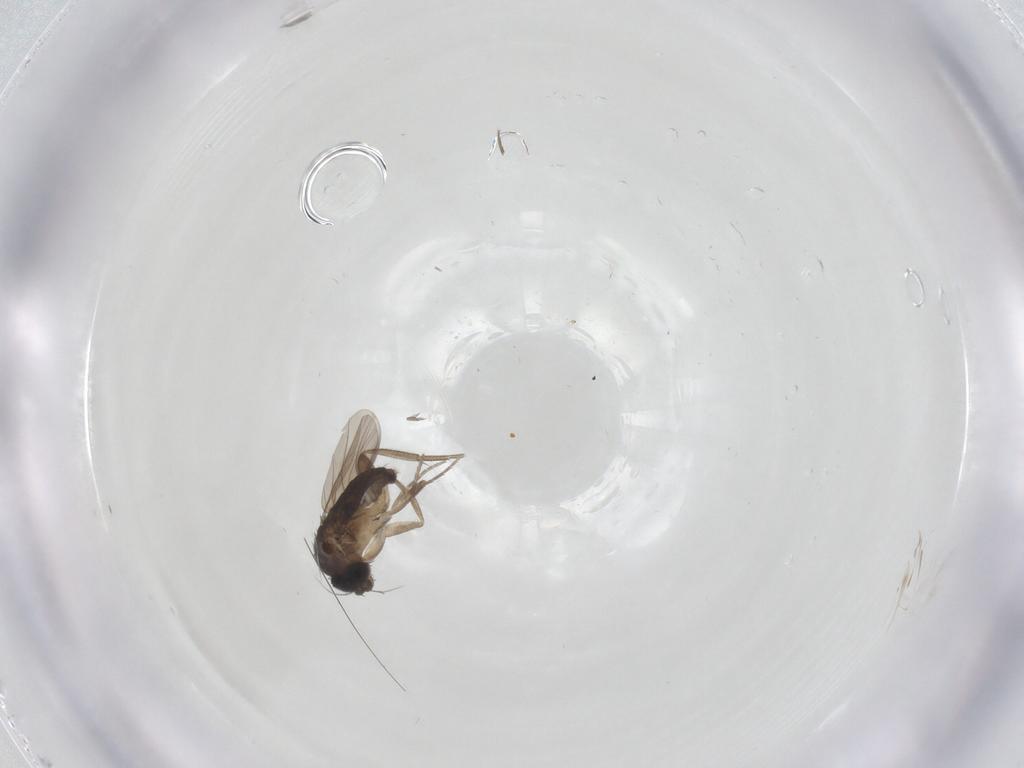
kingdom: Animalia
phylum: Arthropoda
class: Insecta
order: Diptera
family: Phoridae
